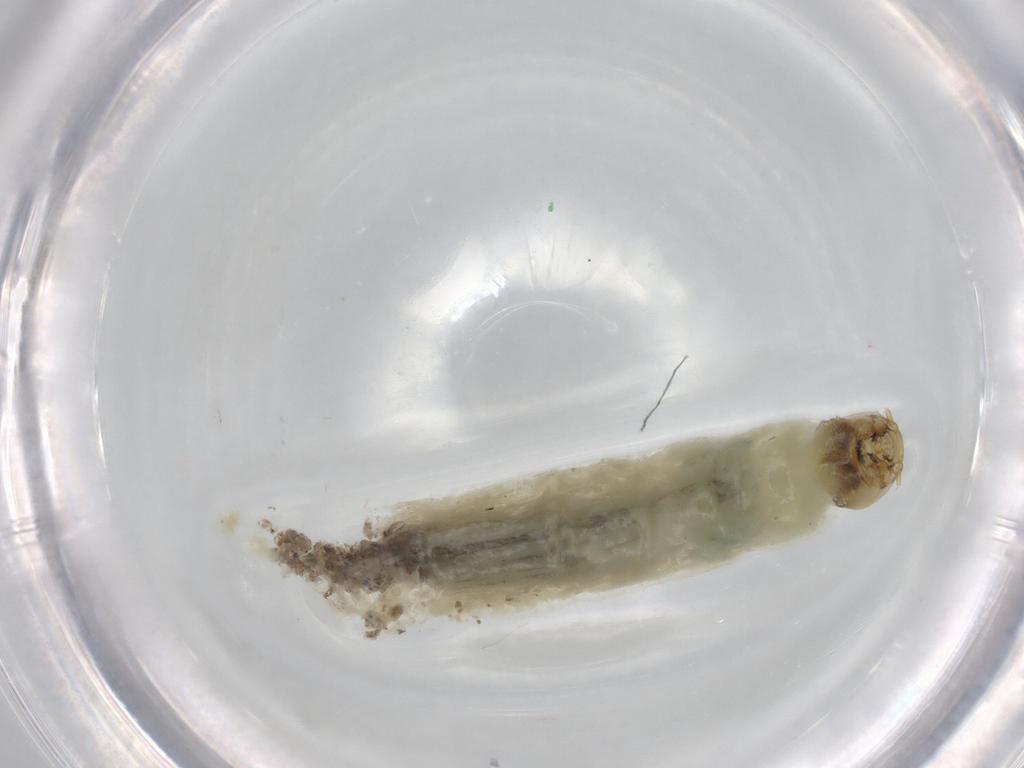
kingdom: Animalia
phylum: Arthropoda
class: Insecta
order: Diptera
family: Chironomidae
